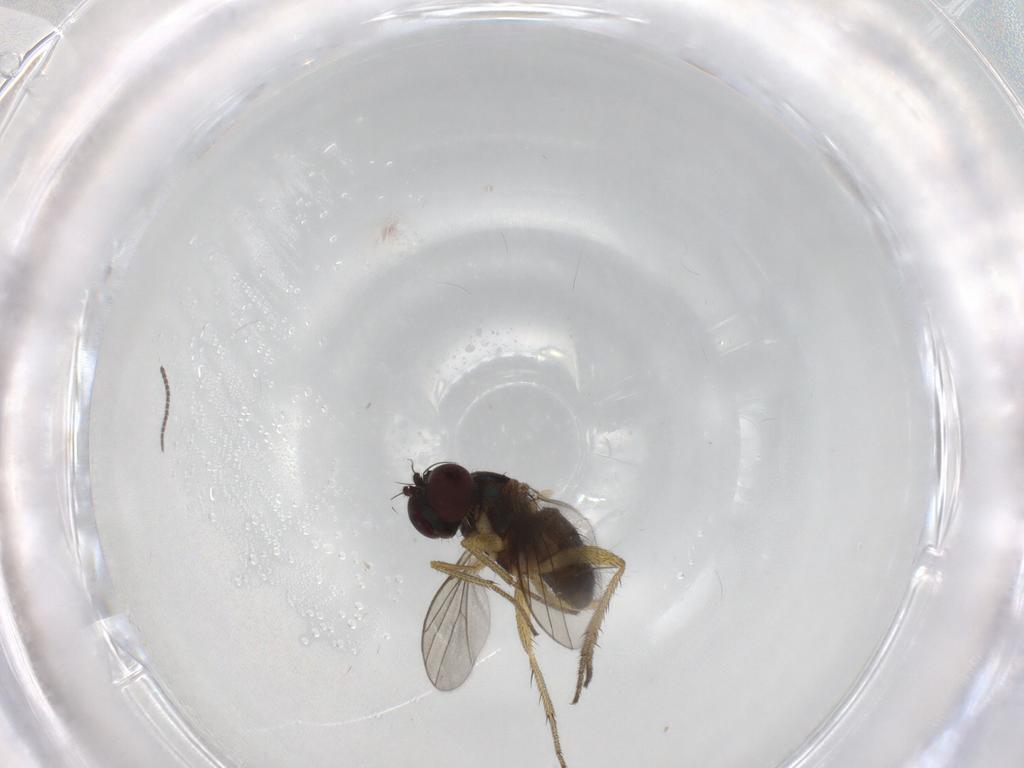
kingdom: Animalia
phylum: Arthropoda
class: Insecta
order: Diptera
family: Sciaridae
